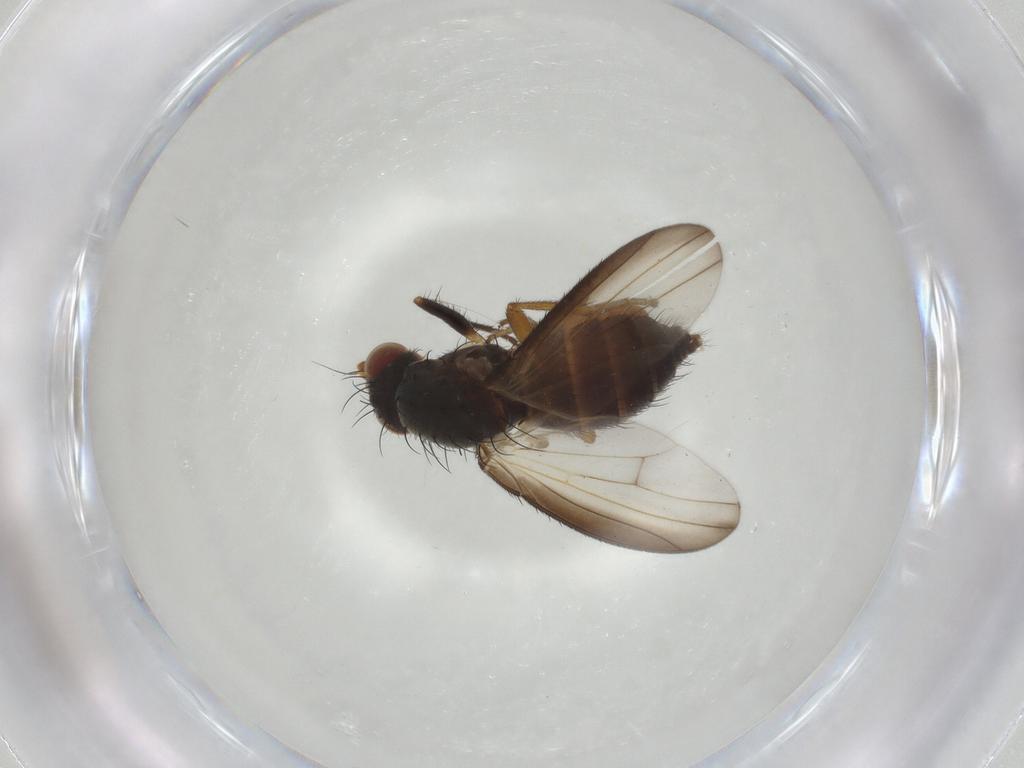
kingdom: Animalia
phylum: Arthropoda
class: Insecta
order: Diptera
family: Heleomyzidae
